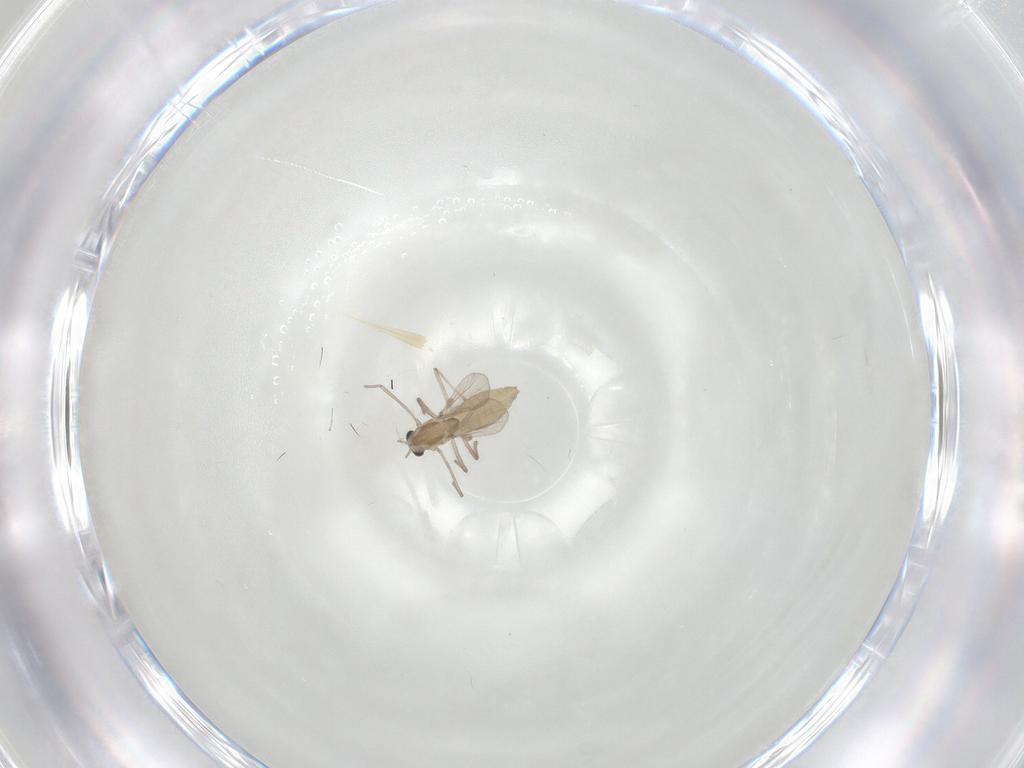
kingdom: Animalia
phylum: Arthropoda
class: Insecta
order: Diptera
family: Chironomidae
